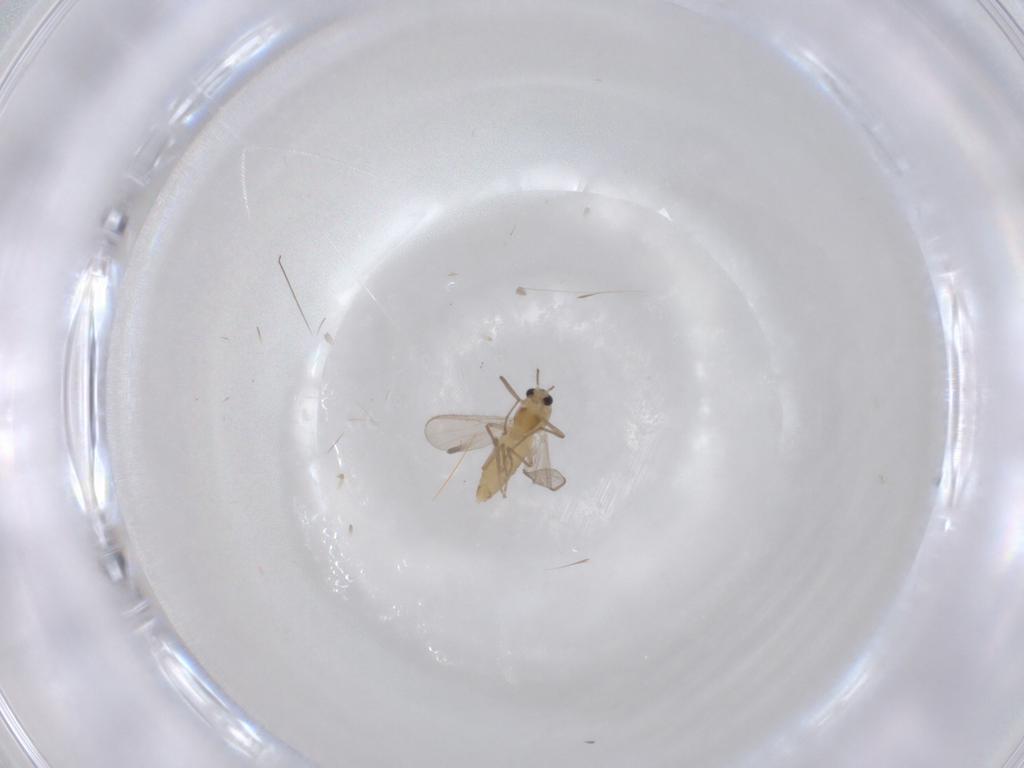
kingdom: Animalia
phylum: Arthropoda
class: Insecta
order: Diptera
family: Chironomidae
